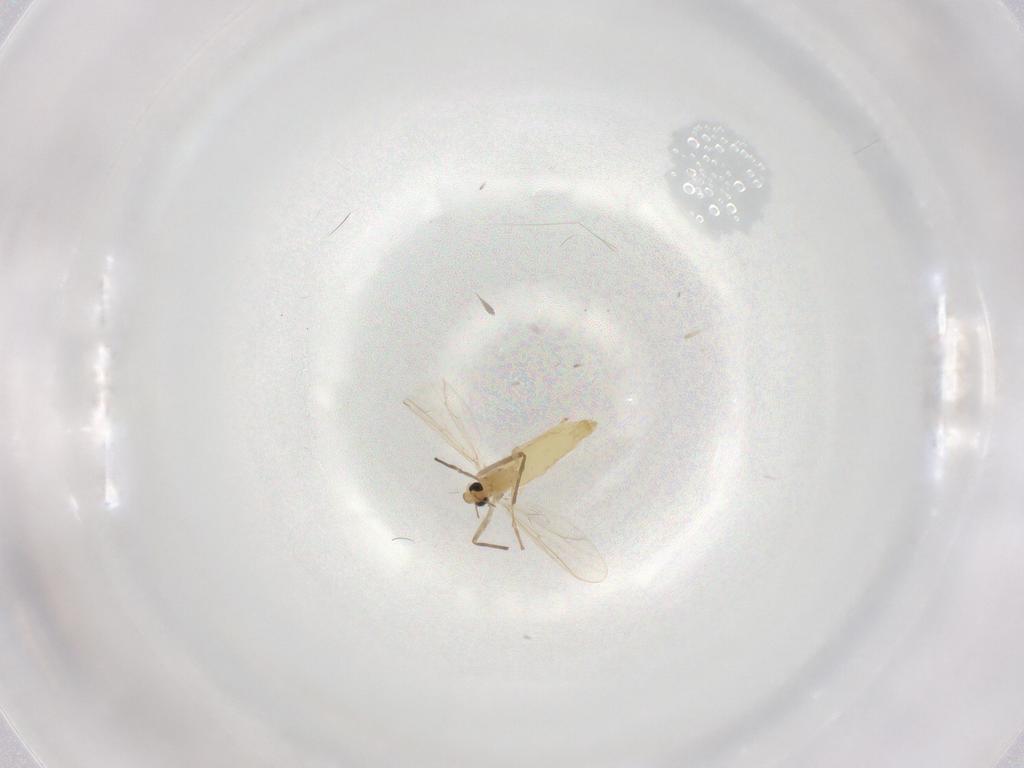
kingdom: Animalia
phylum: Arthropoda
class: Insecta
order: Diptera
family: Chironomidae
